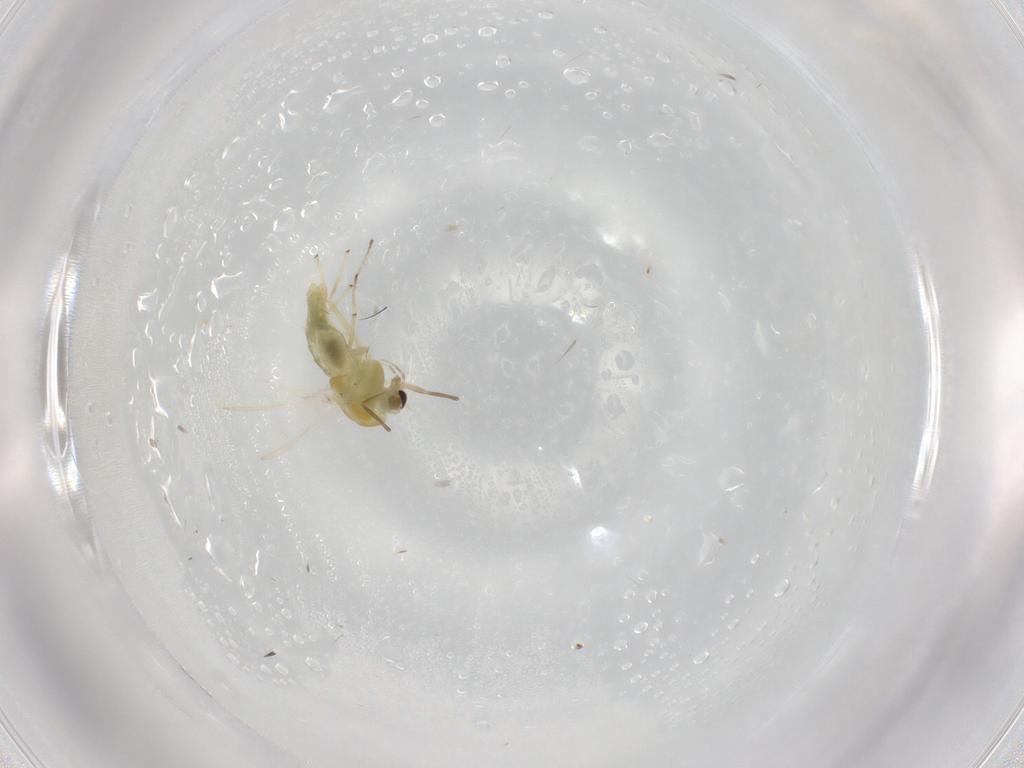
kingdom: Animalia
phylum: Arthropoda
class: Insecta
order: Diptera
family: Chironomidae
